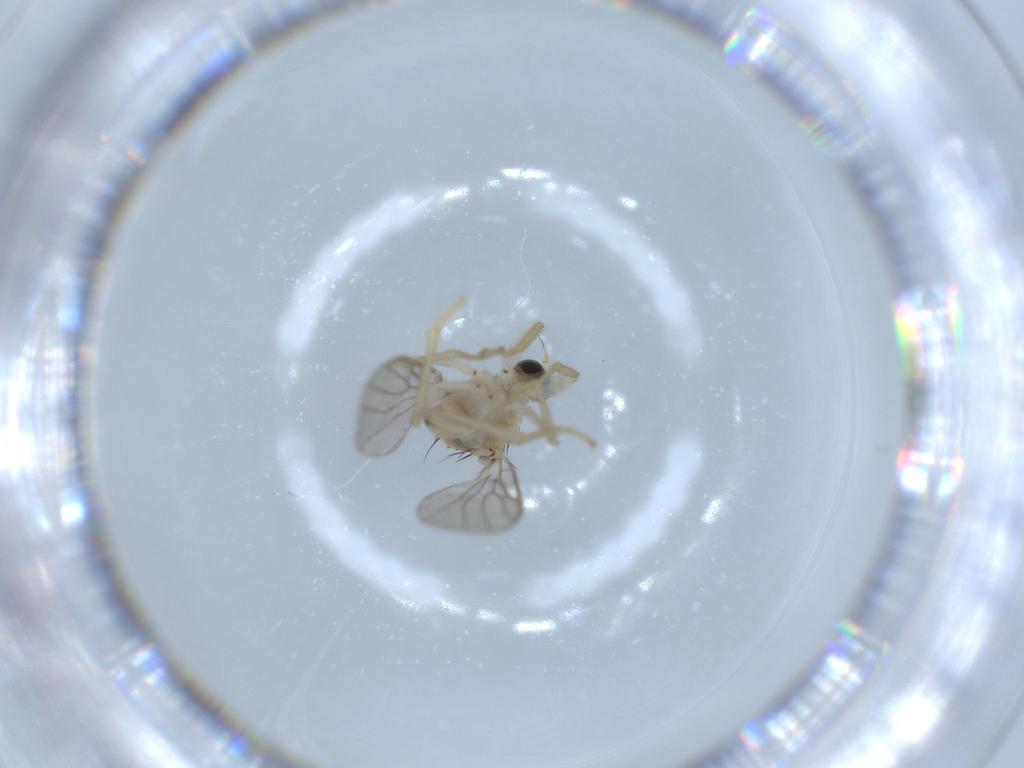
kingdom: Animalia
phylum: Arthropoda
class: Insecta
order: Diptera
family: Hybotidae
